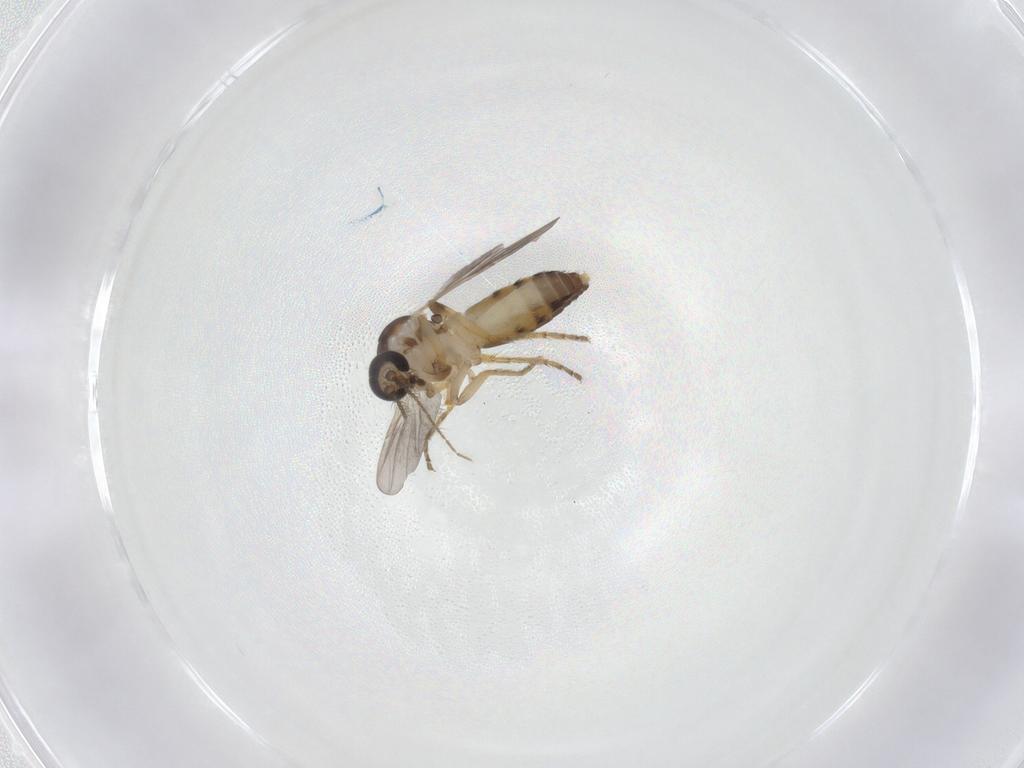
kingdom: Animalia
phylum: Arthropoda
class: Insecta
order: Diptera
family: Ceratopogonidae
